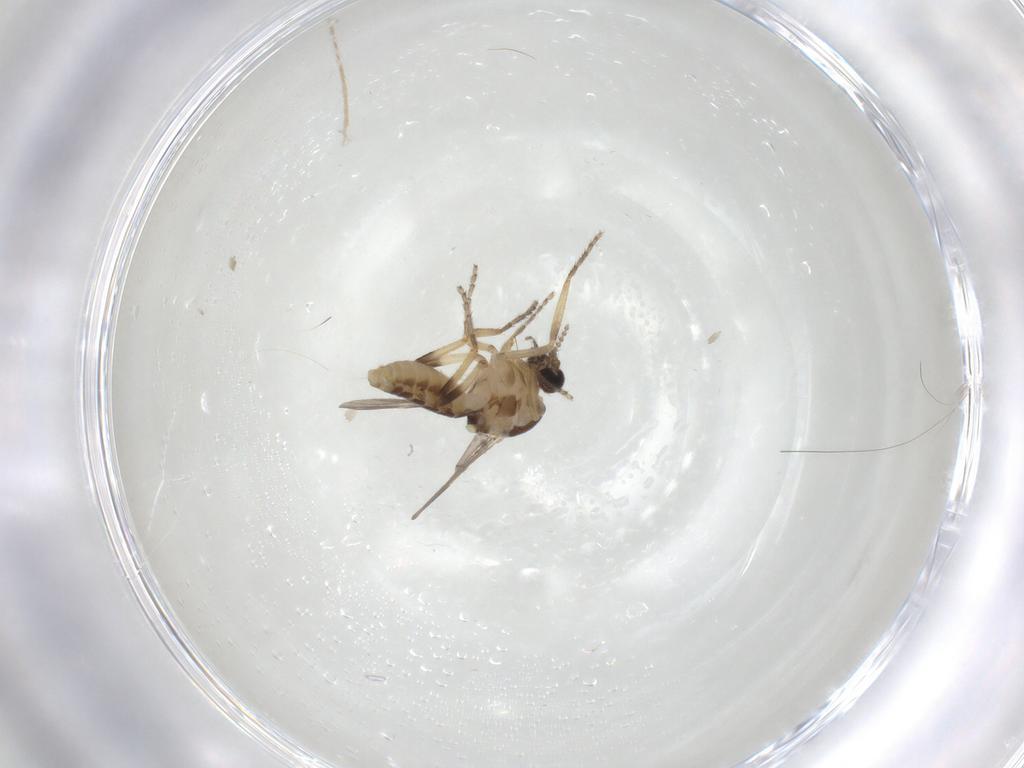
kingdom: Animalia
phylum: Arthropoda
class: Insecta
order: Diptera
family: Ceratopogonidae
